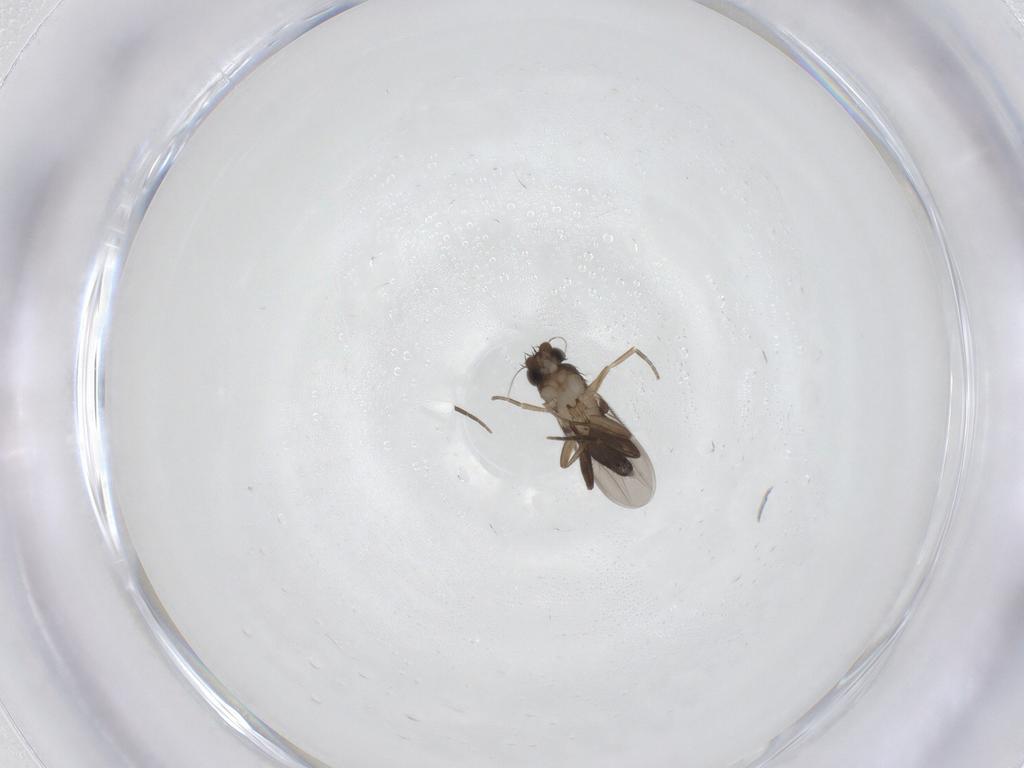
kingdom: Animalia
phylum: Arthropoda
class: Insecta
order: Diptera
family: Phoridae
